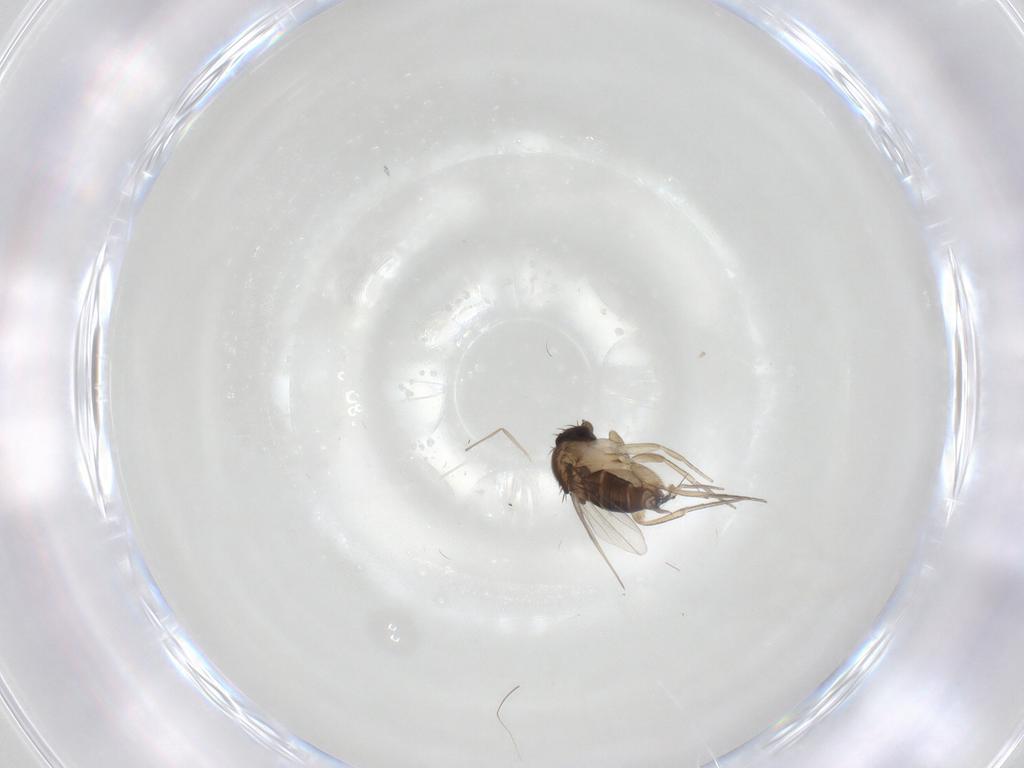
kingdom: Animalia
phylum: Arthropoda
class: Insecta
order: Diptera
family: Chironomidae
